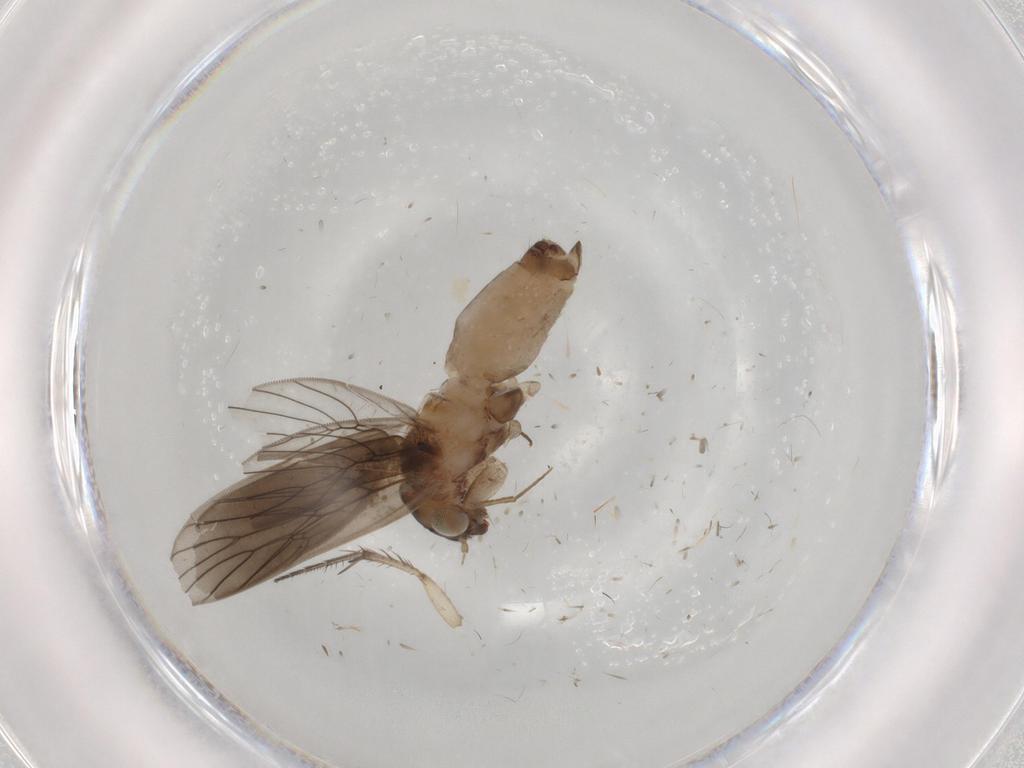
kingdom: Animalia
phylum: Arthropoda
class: Insecta
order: Psocodea
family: Lepidopsocidae
